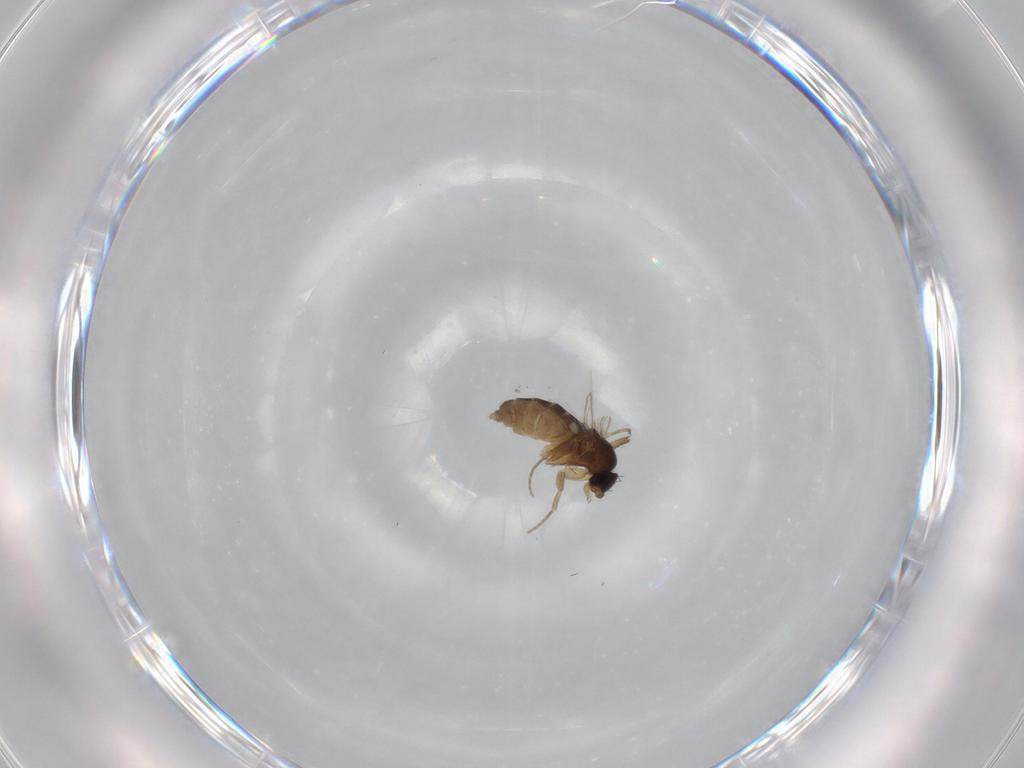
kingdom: Animalia
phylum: Arthropoda
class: Insecta
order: Diptera
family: Phoridae
